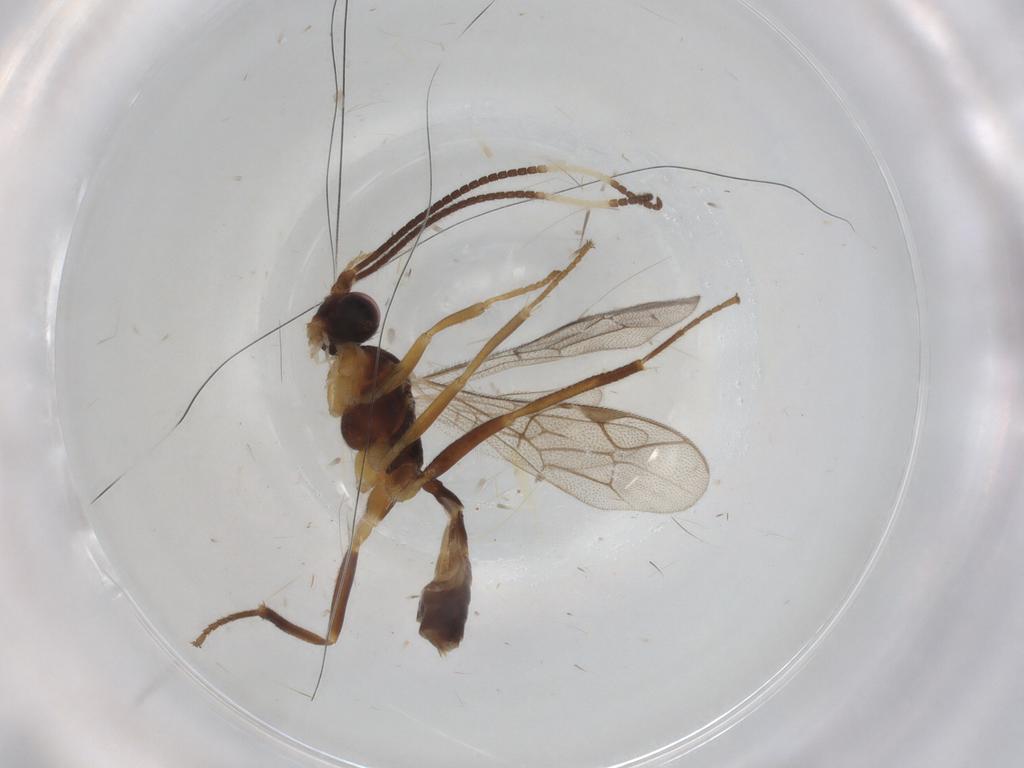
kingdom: Animalia
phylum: Arthropoda
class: Insecta
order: Hymenoptera
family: Ichneumonidae
